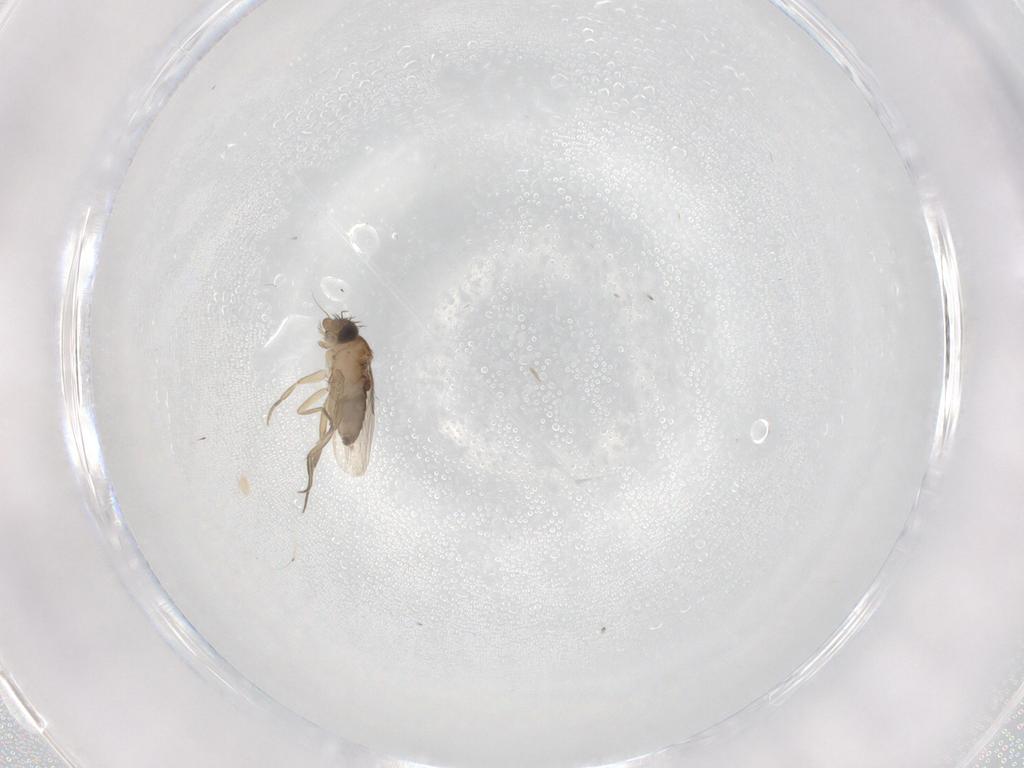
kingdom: Animalia
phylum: Arthropoda
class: Insecta
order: Diptera
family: Phoridae
